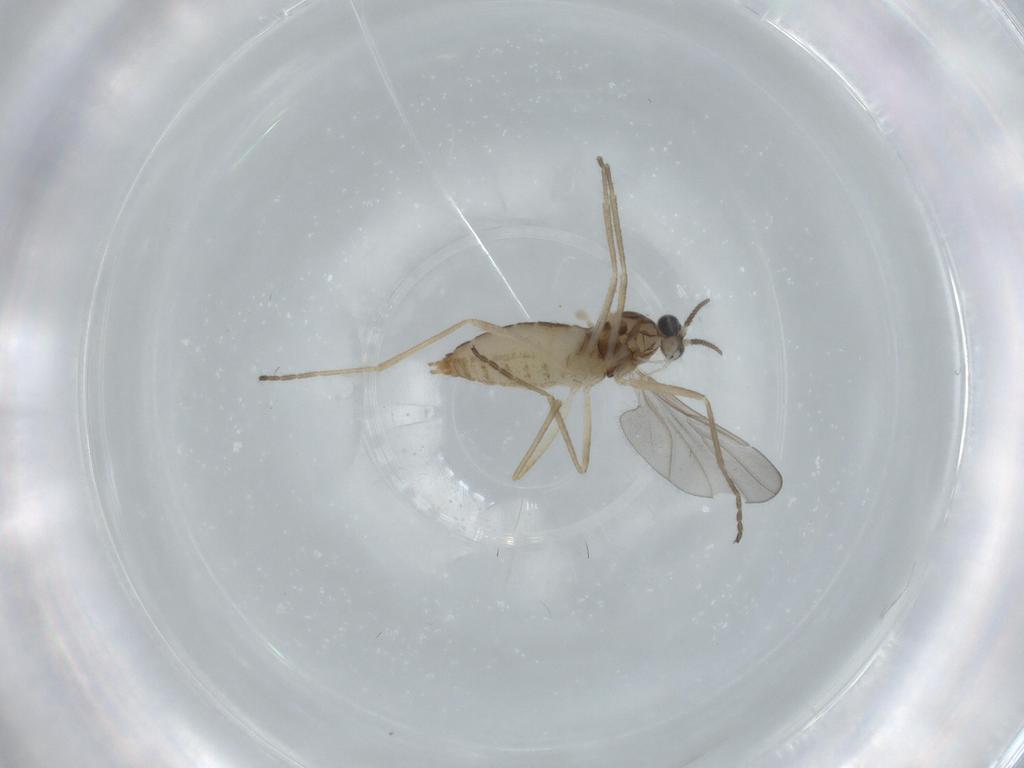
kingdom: Animalia
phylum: Arthropoda
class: Insecta
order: Diptera
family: Cecidomyiidae
